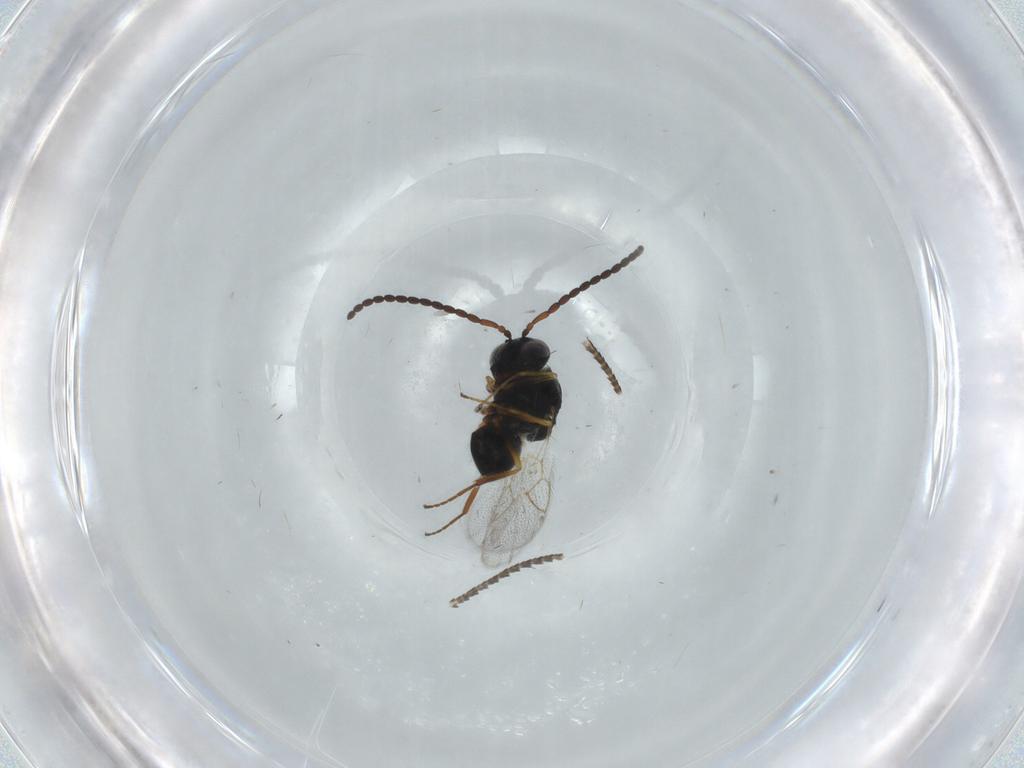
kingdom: Animalia
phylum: Arthropoda
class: Insecta
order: Hymenoptera
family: Figitidae
